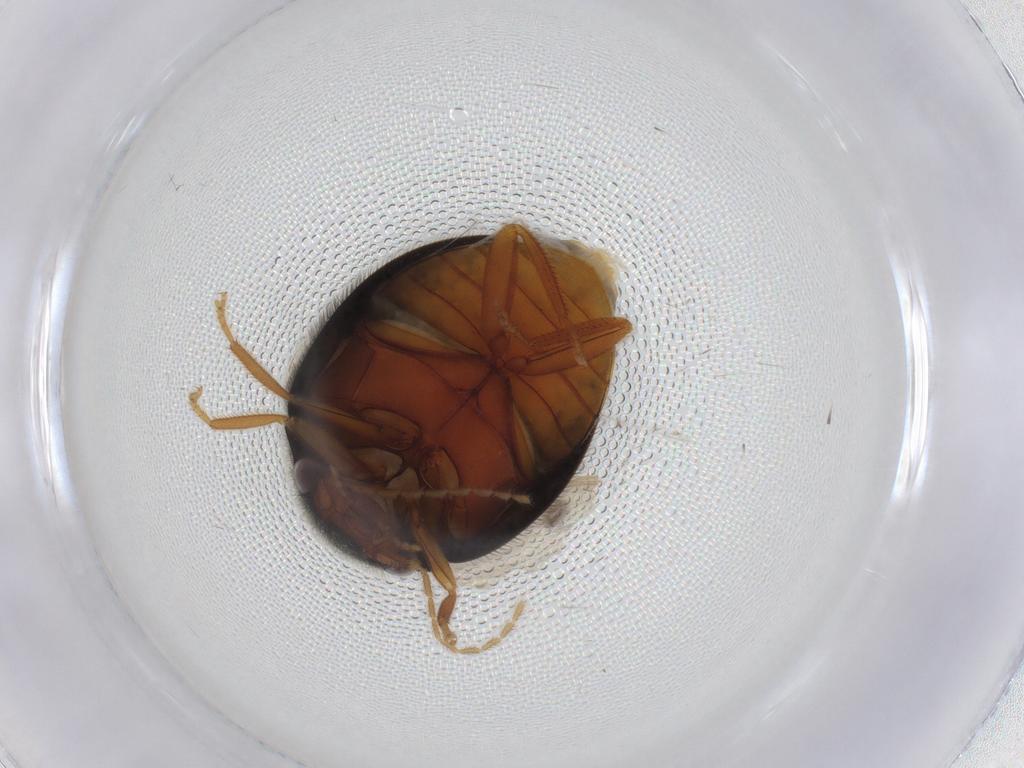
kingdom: Animalia
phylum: Arthropoda
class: Insecta
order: Coleoptera
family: Scirtidae
